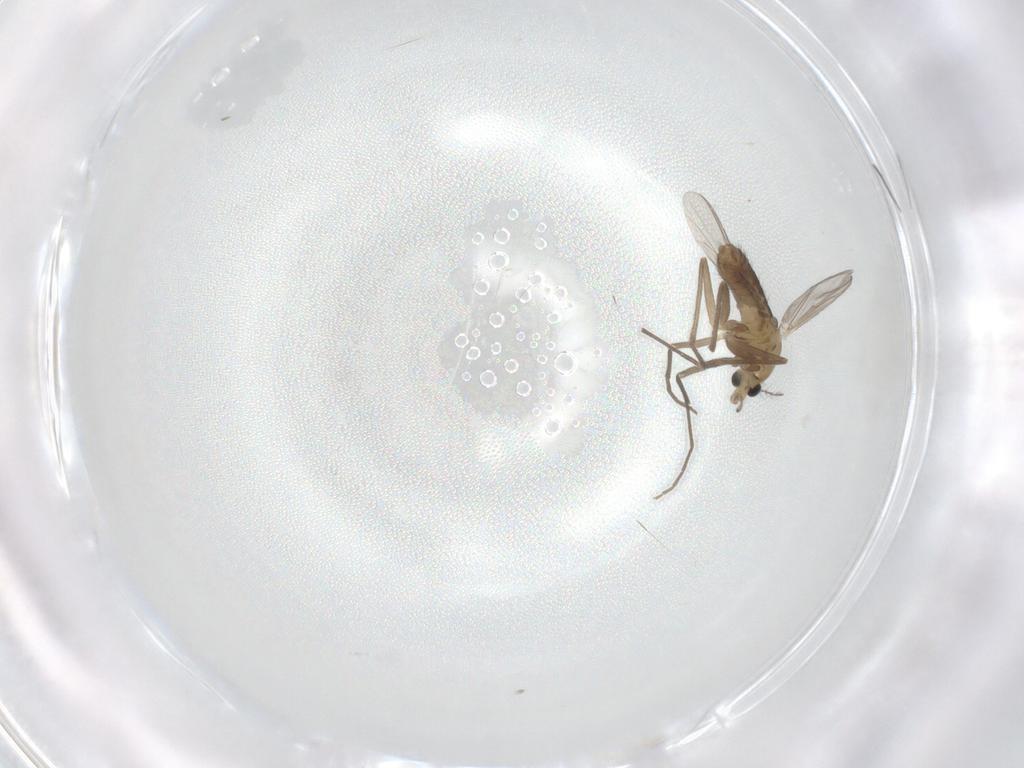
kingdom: Animalia
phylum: Arthropoda
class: Insecta
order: Diptera
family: Chironomidae
